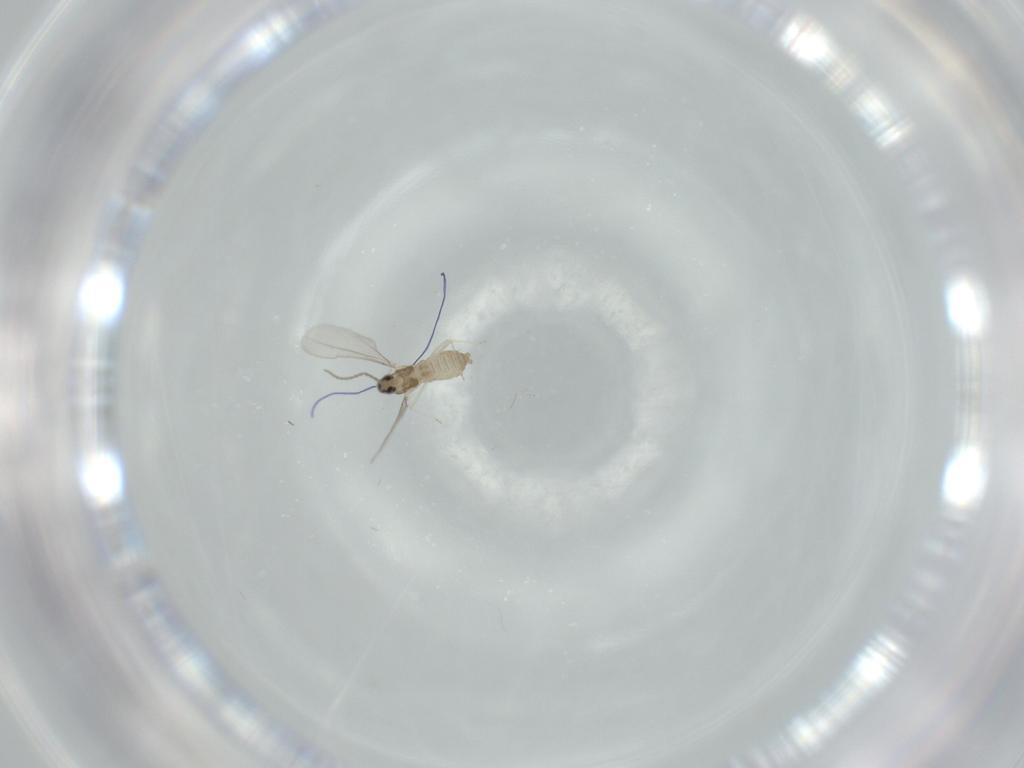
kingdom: Animalia
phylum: Arthropoda
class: Insecta
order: Diptera
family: Cecidomyiidae
